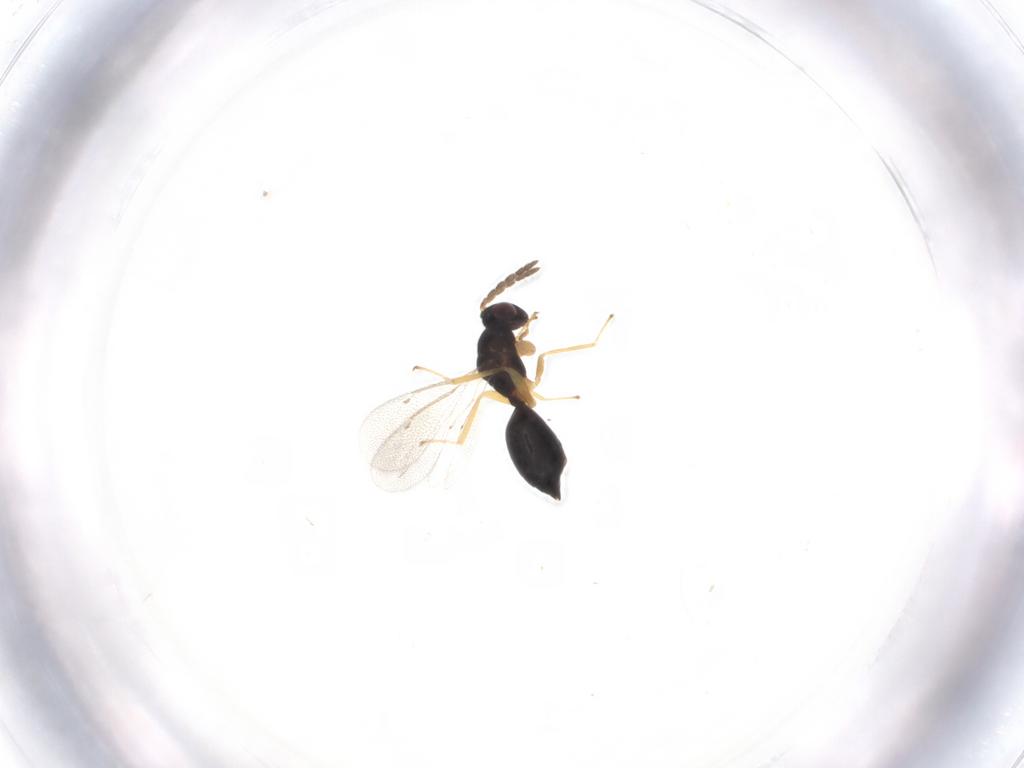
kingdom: Animalia
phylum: Arthropoda
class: Insecta
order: Hymenoptera
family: Eulophidae
